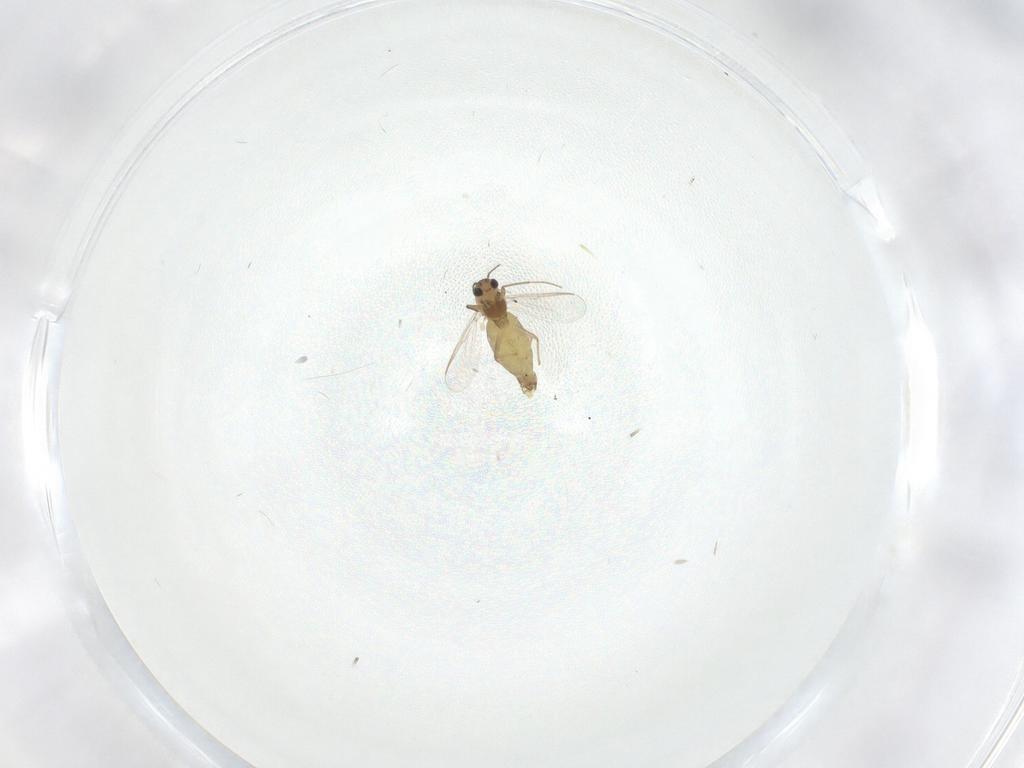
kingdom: Animalia
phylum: Arthropoda
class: Insecta
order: Diptera
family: Chironomidae
